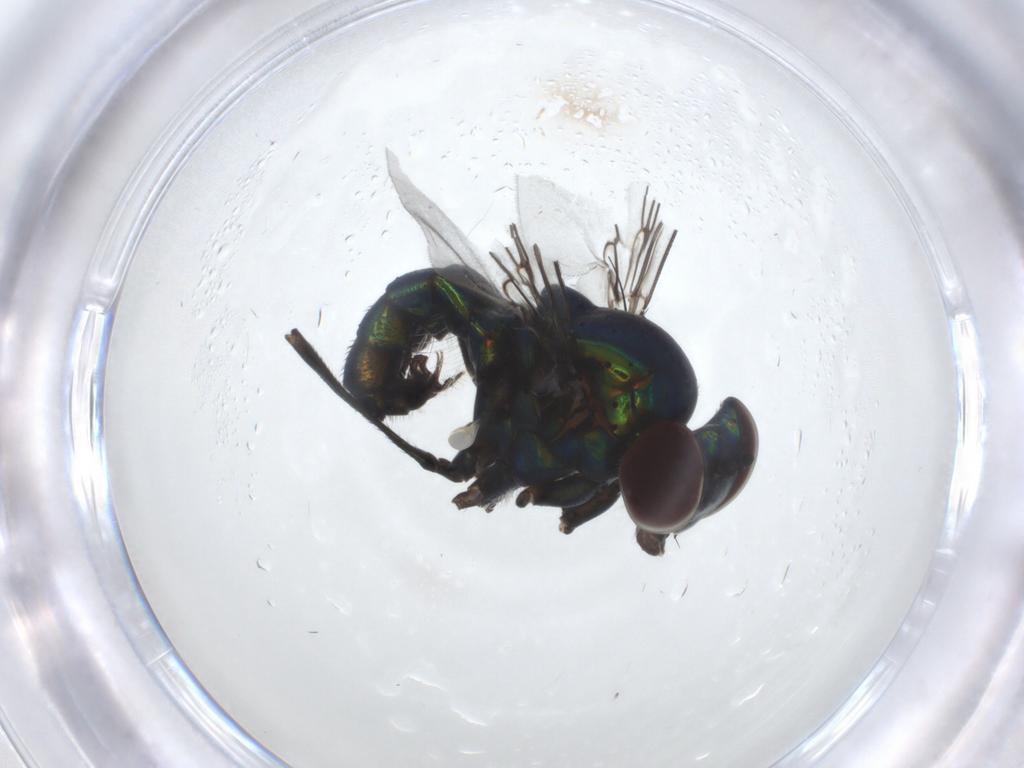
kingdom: Animalia
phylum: Arthropoda
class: Insecta
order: Diptera
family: Dolichopodidae
